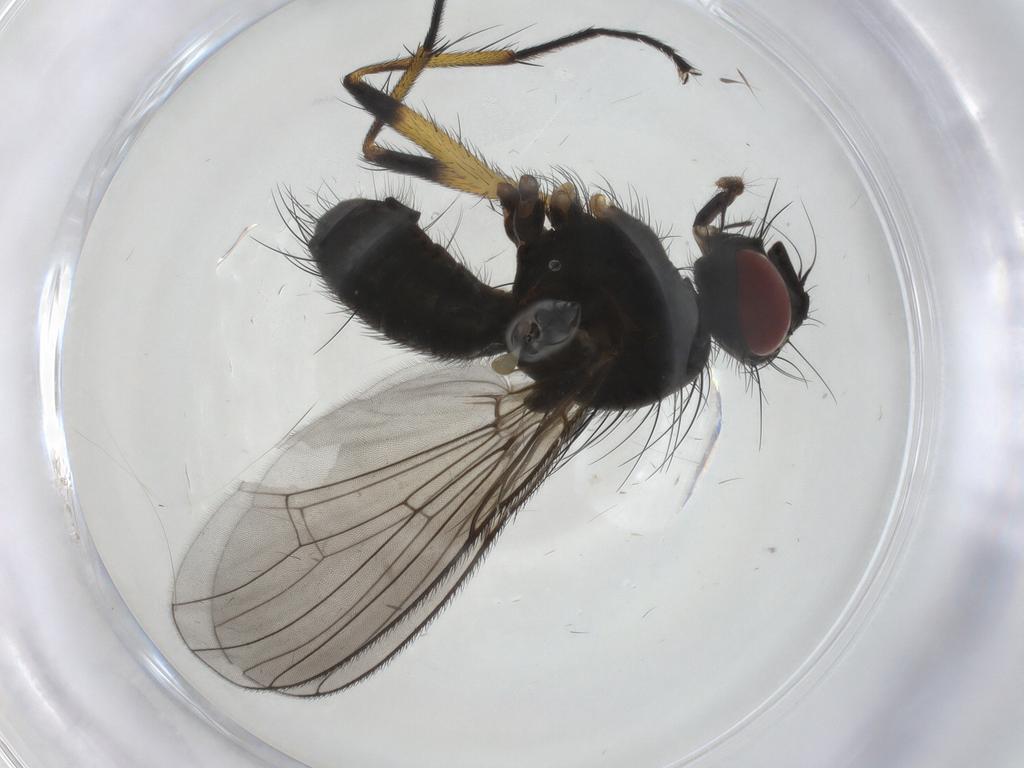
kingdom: Animalia
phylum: Arthropoda
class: Insecta
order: Diptera
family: Muscidae
